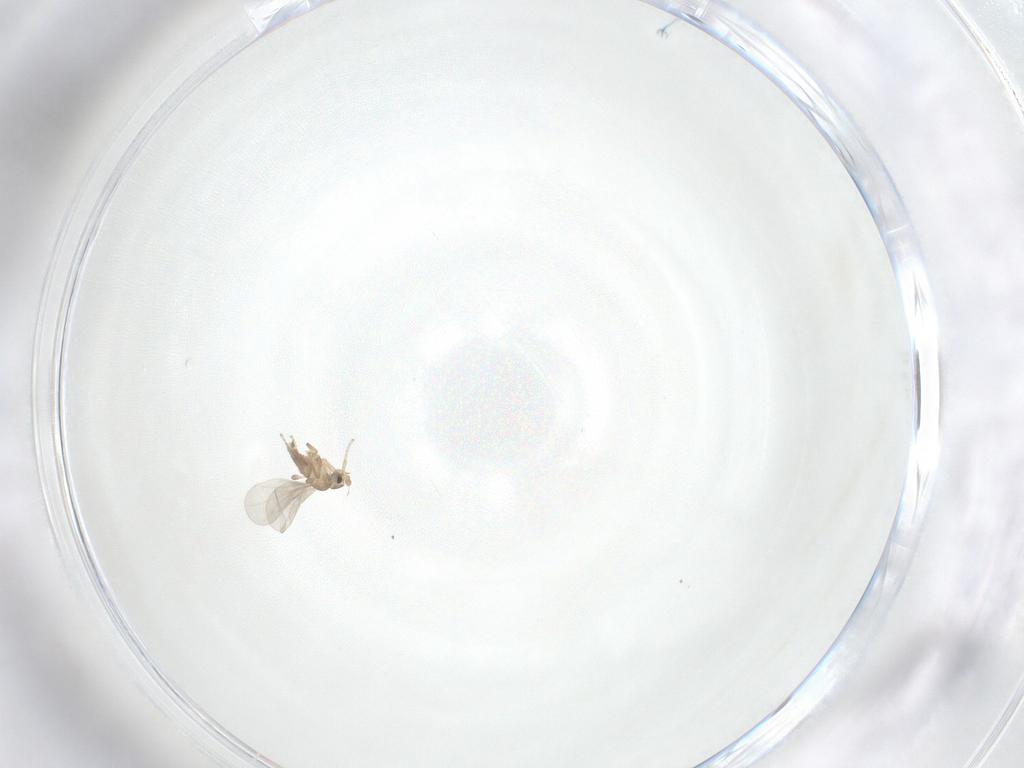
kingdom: Animalia
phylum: Arthropoda
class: Insecta
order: Diptera
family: Phoridae
